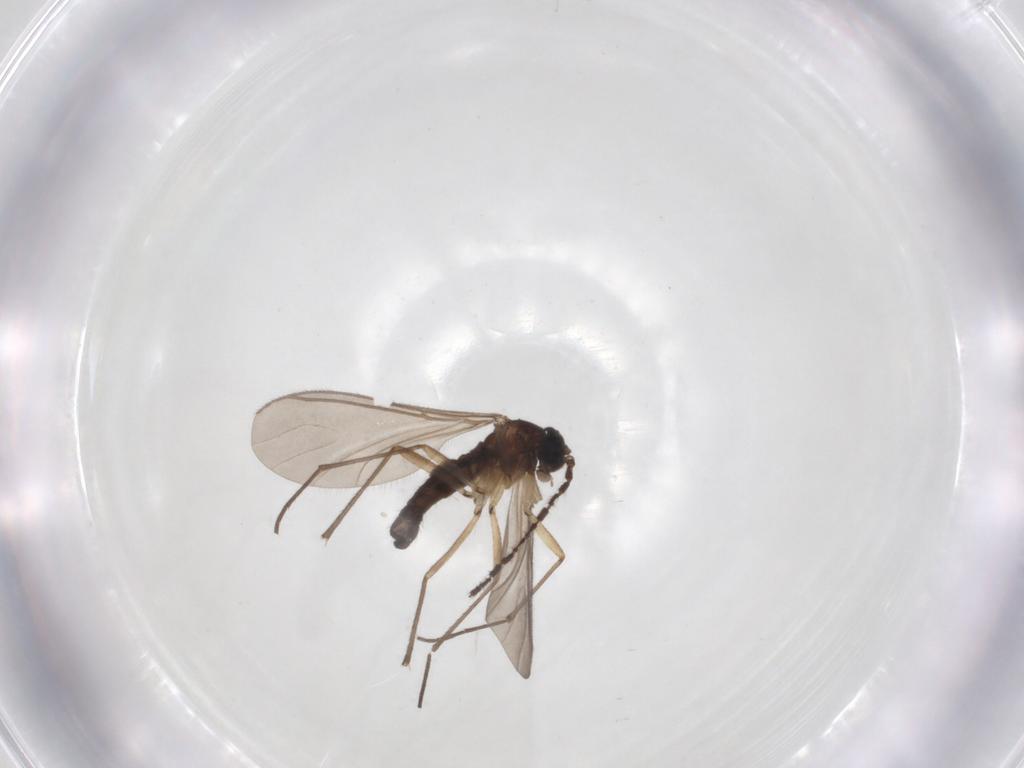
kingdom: Animalia
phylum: Arthropoda
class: Insecta
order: Diptera
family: Sciaridae
